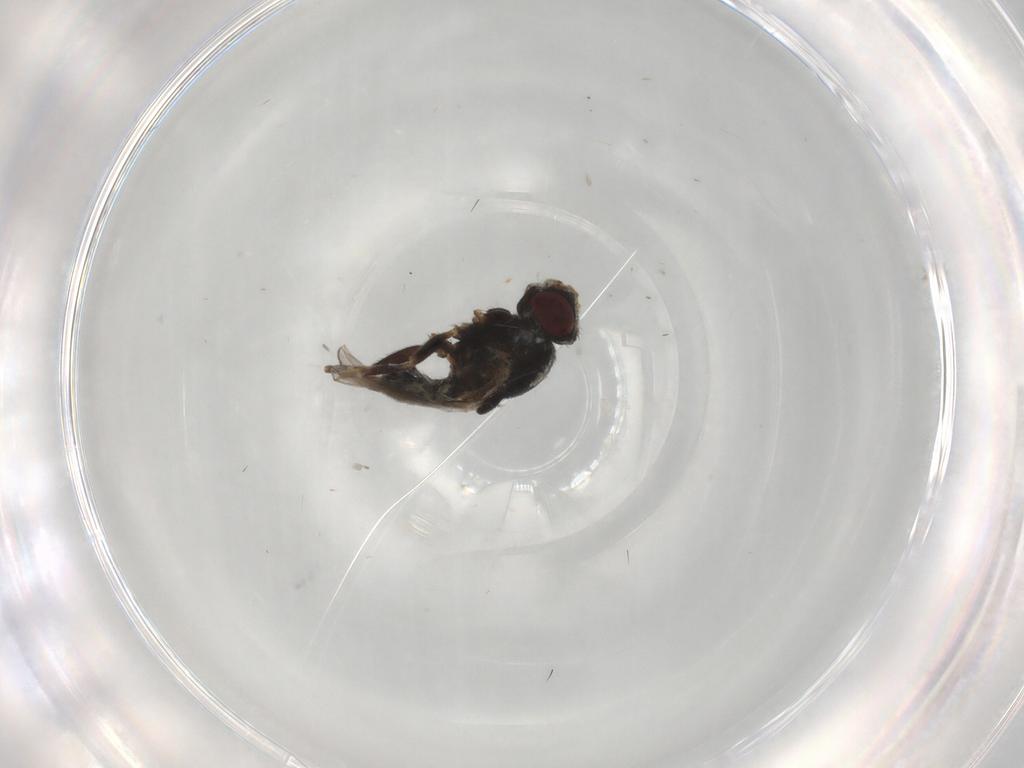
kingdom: Animalia
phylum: Arthropoda
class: Insecta
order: Diptera
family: Chloropidae
